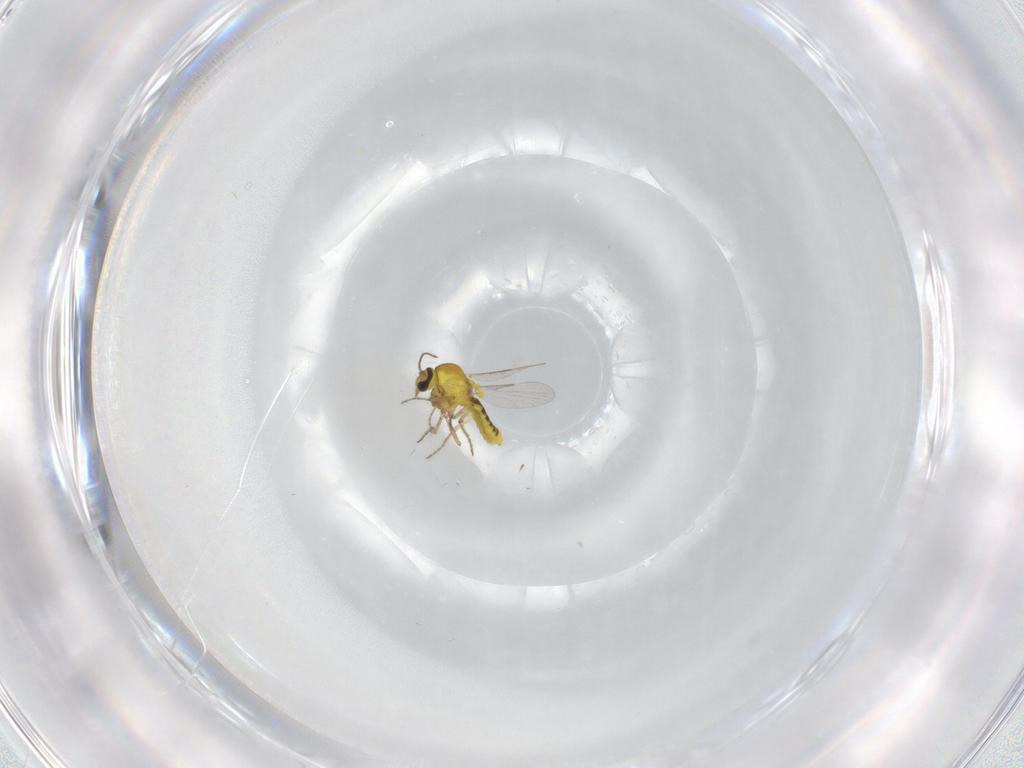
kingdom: Animalia
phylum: Arthropoda
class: Insecta
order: Diptera
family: Ceratopogonidae
